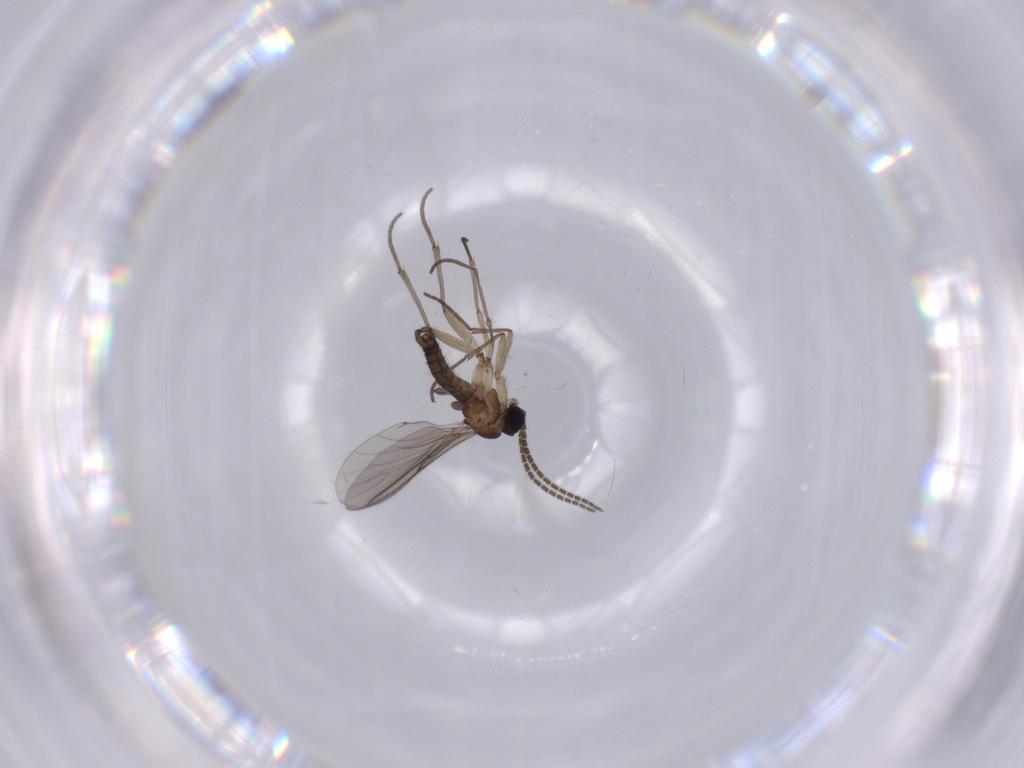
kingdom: Animalia
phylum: Arthropoda
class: Insecta
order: Diptera
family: Sciaridae
